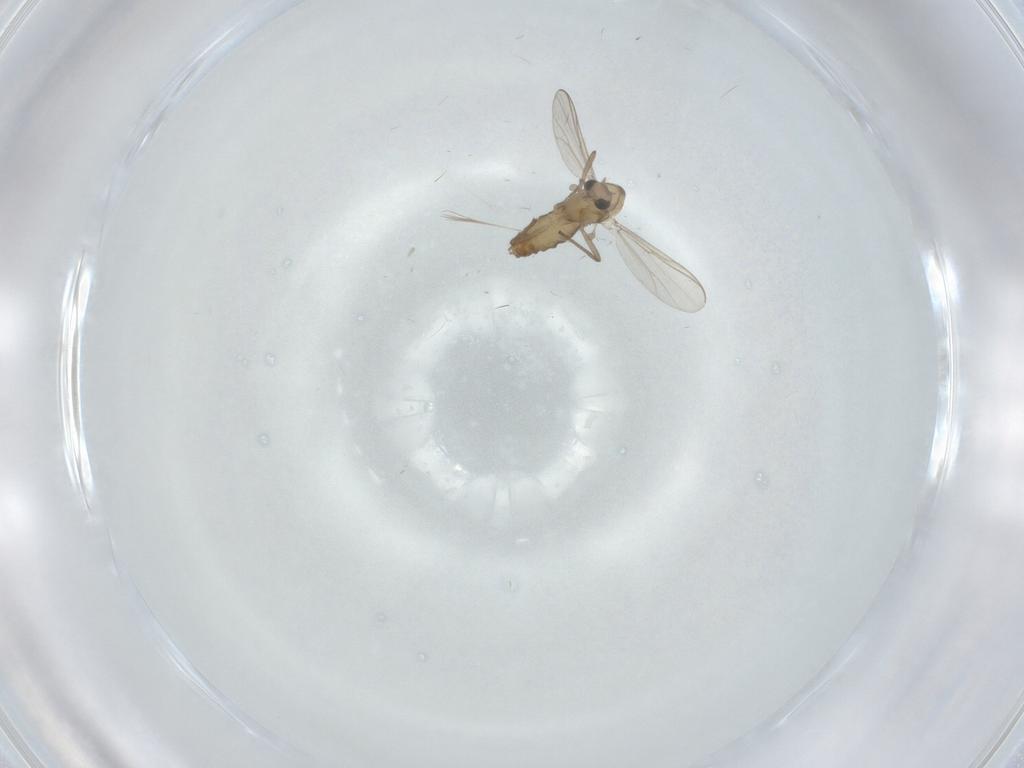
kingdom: Animalia
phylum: Arthropoda
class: Insecta
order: Diptera
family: Chironomidae
